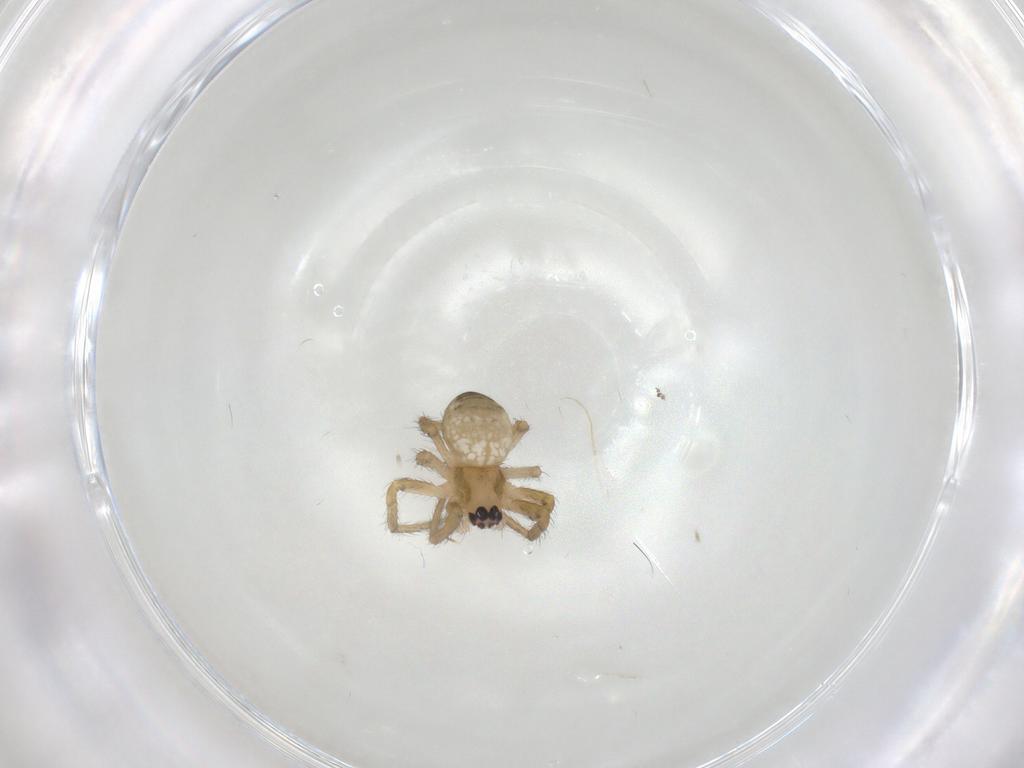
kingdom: Animalia
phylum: Arthropoda
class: Arachnida
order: Araneae
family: Araneidae
